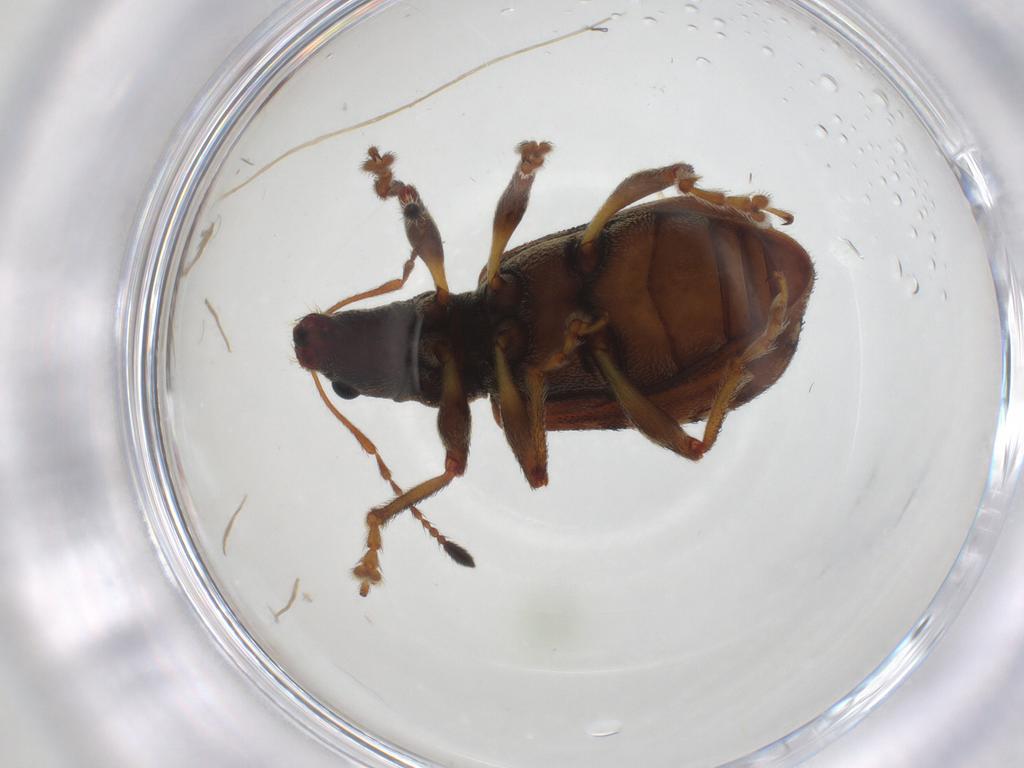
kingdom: Animalia
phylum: Arthropoda
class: Insecta
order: Coleoptera
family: Curculionidae
